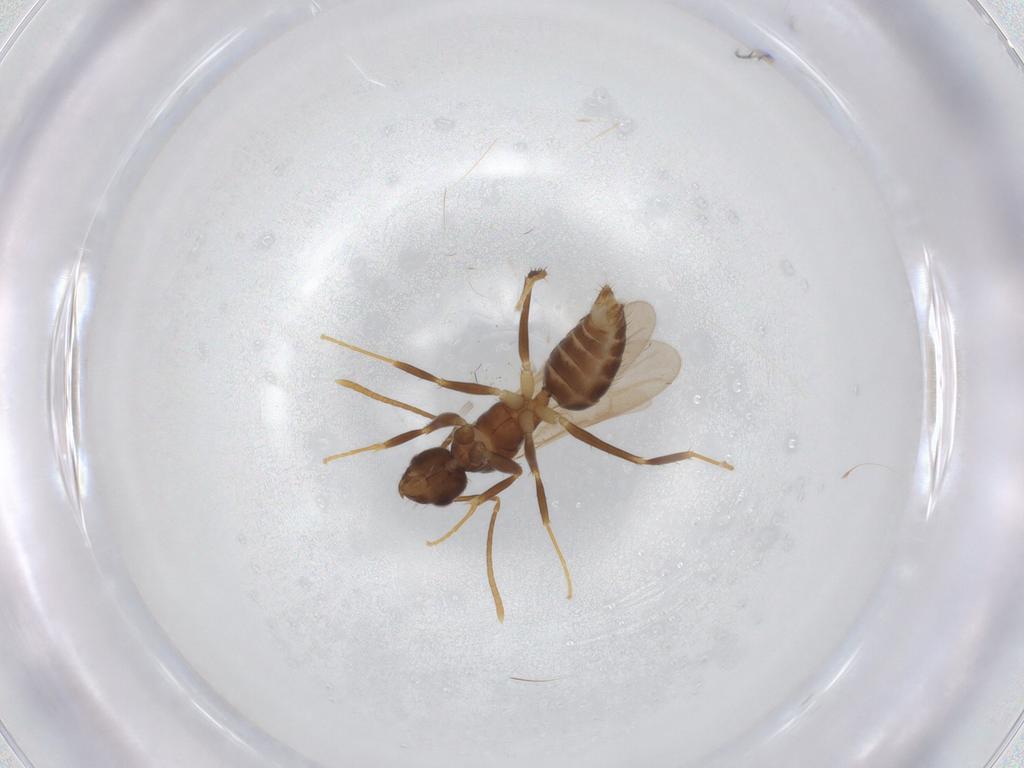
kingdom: Animalia
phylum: Arthropoda
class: Insecta
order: Hymenoptera
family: Formicidae
